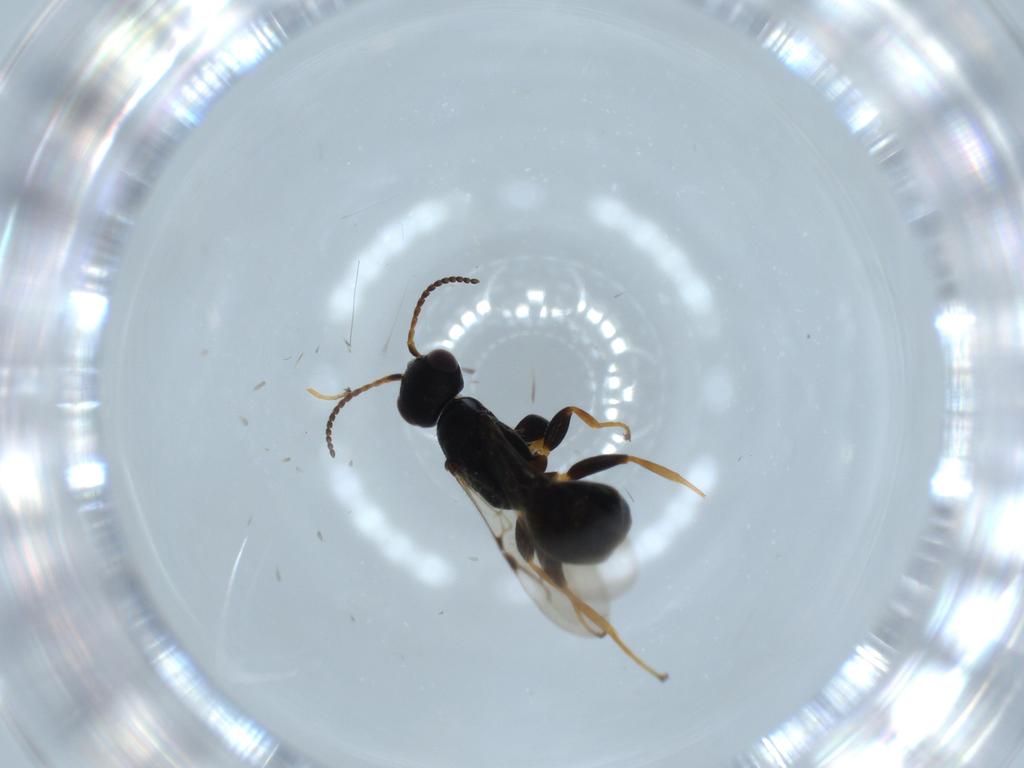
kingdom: Animalia
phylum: Arthropoda
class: Insecta
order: Hymenoptera
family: Bethylidae
